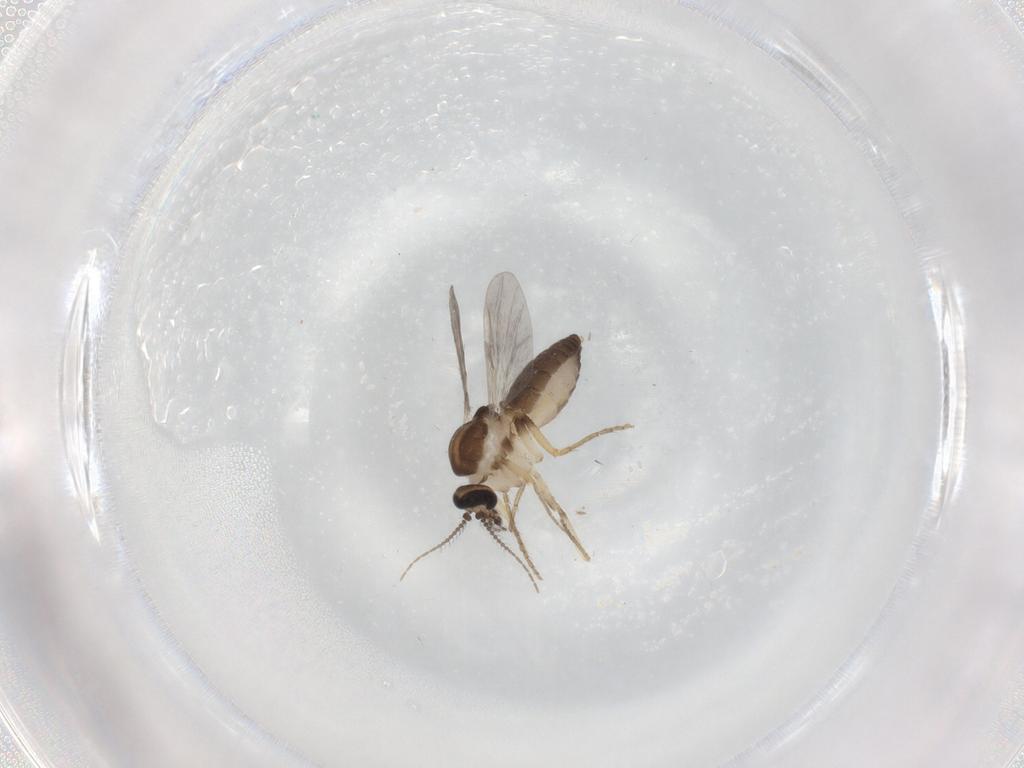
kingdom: Animalia
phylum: Arthropoda
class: Insecta
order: Diptera
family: Ceratopogonidae
